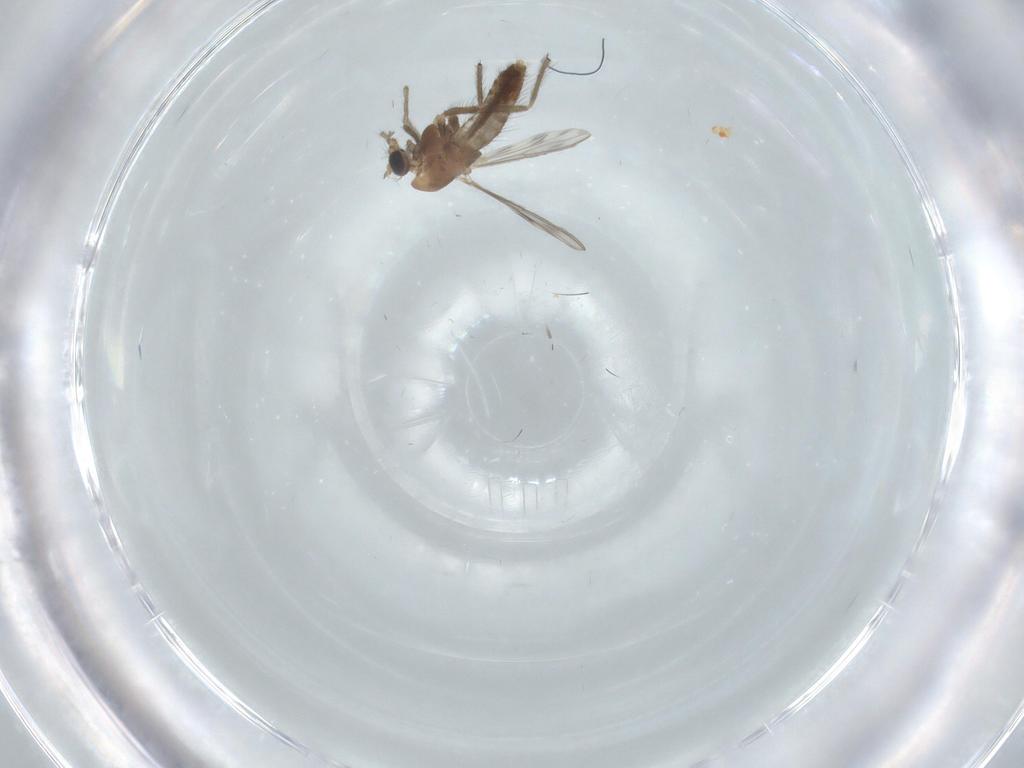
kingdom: Animalia
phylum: Arthropoda
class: Insecta
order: Diptera
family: Chironomidae
